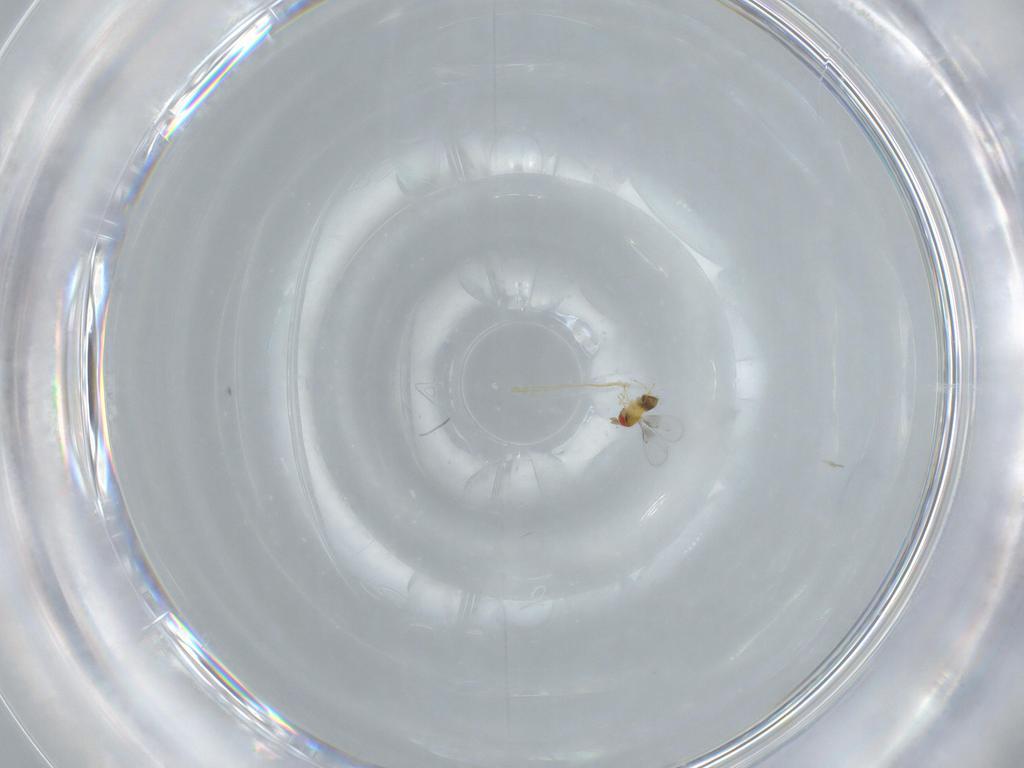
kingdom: Animalia
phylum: Arthropoda
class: Insecta
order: Hymenoptera
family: Trichogrammatidae
